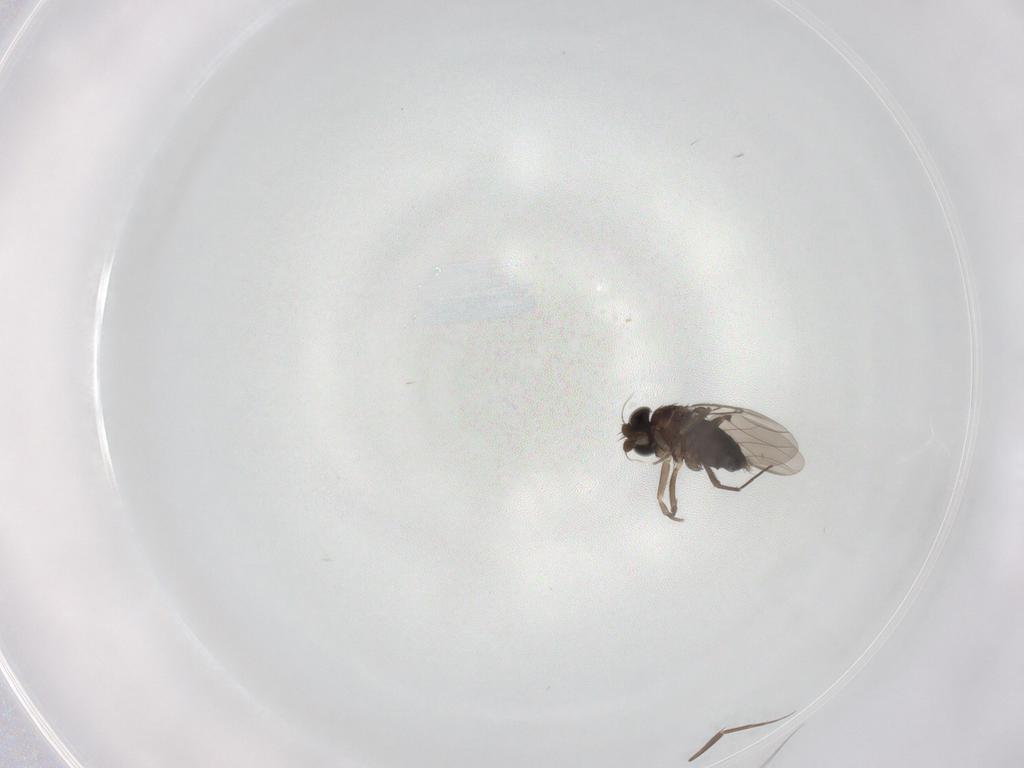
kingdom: Animalia
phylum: Arthropoda
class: Insecta
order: Diptera
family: Phoridae
